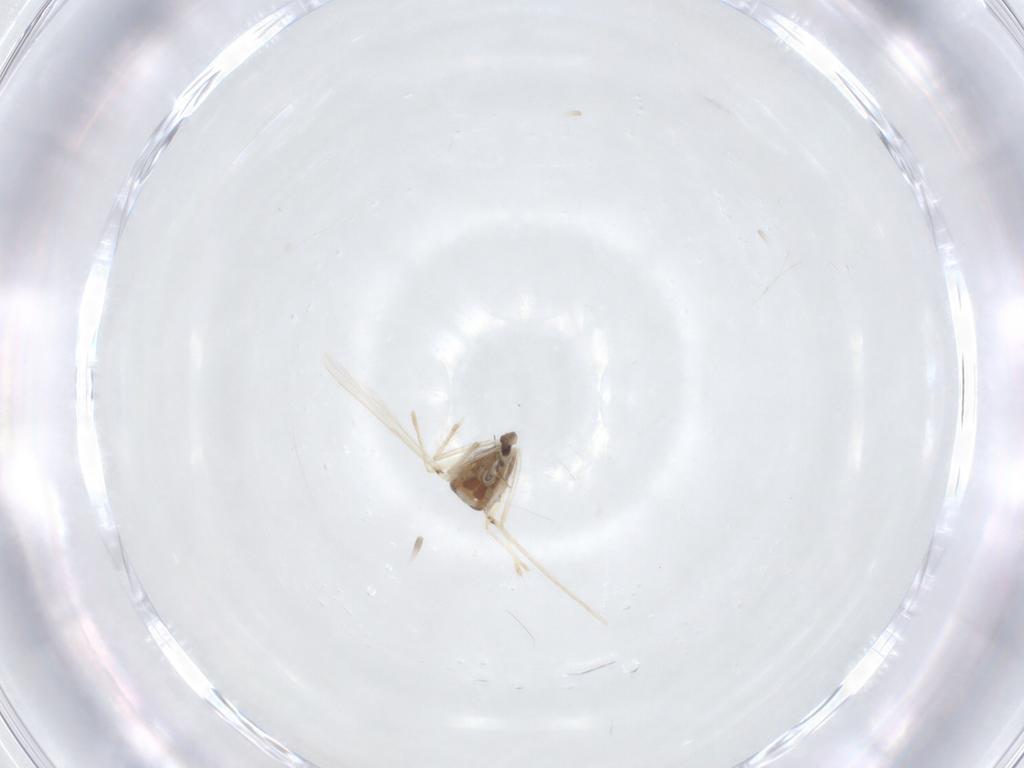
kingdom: Animalia
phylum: Arthropoda
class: Insecta
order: Diptera
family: Chironomidae
